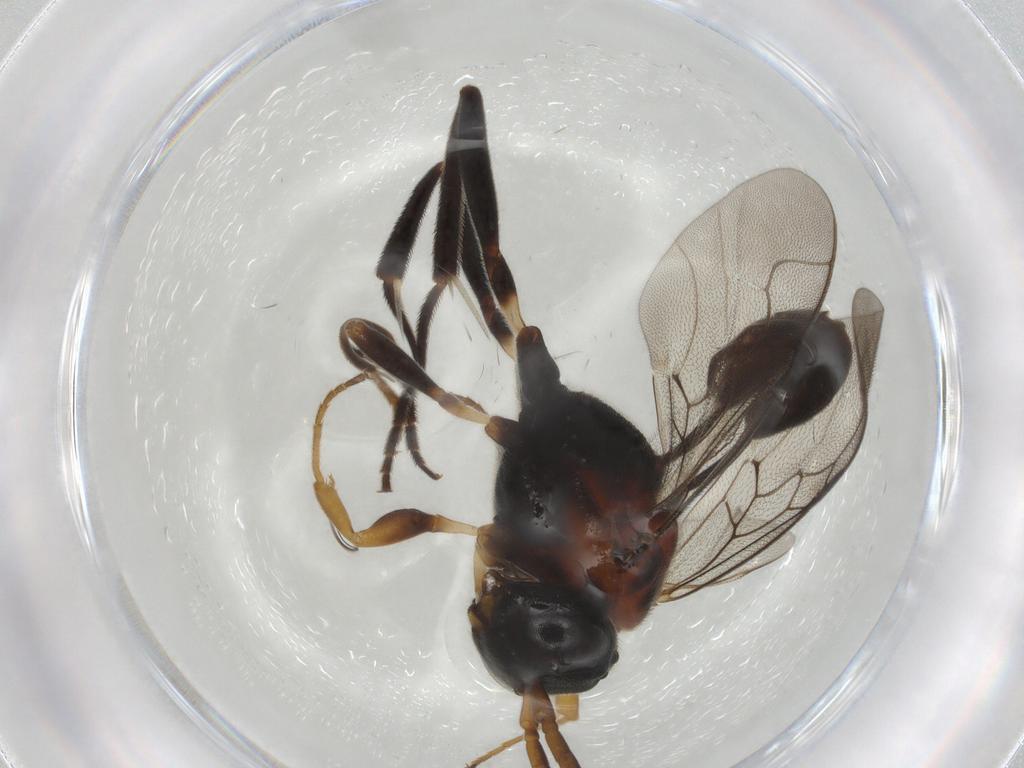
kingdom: Animalia
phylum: Arthropoda
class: Insecta
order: Hymenoptera
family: Evaniidae
